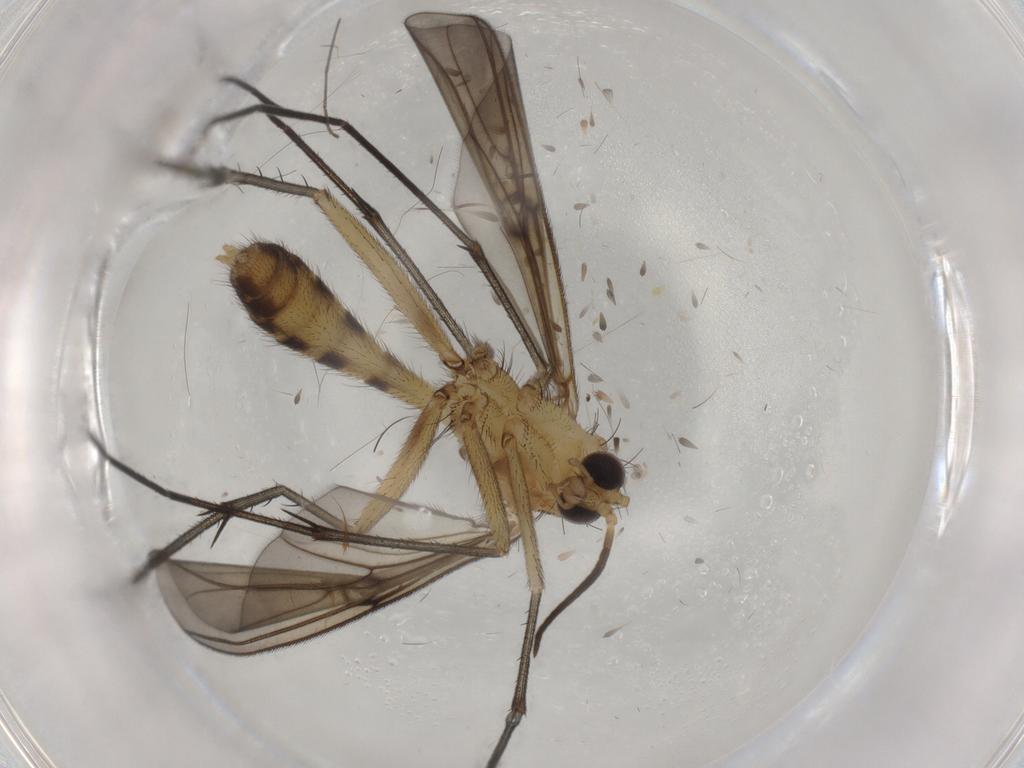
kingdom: Animalia
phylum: Arthropoda
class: Insecta
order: Diptera
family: Mycetophilidae
